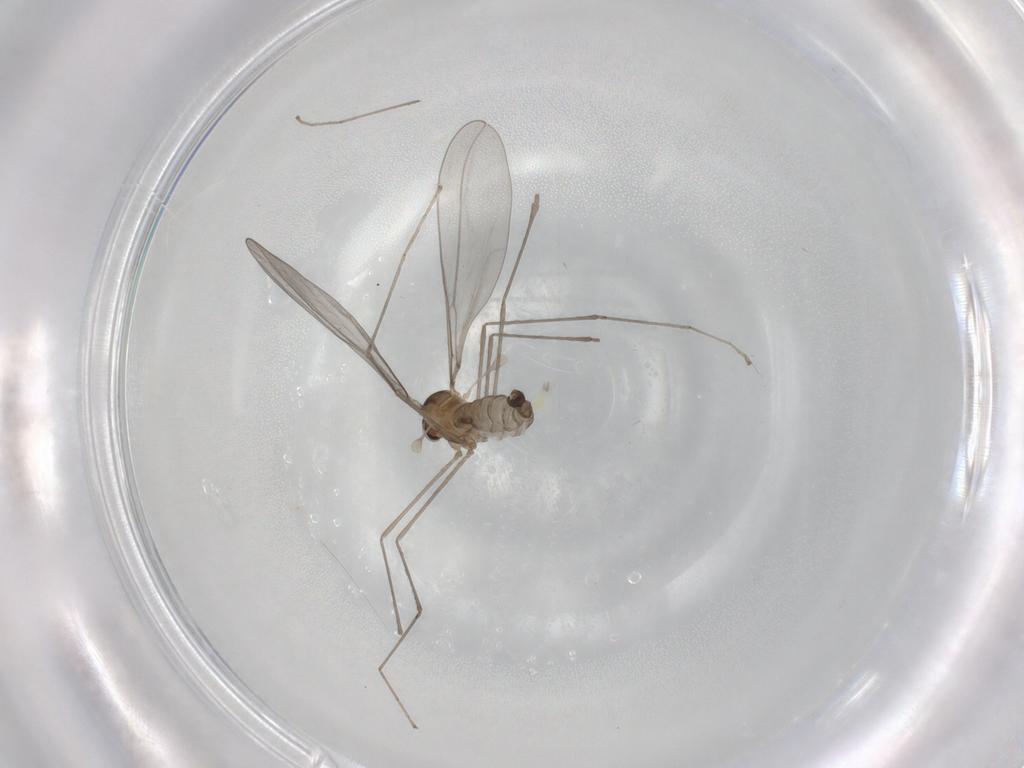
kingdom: Animalia
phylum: Arthropoda
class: Insecta
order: Diptera
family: Cecidomyiidae
